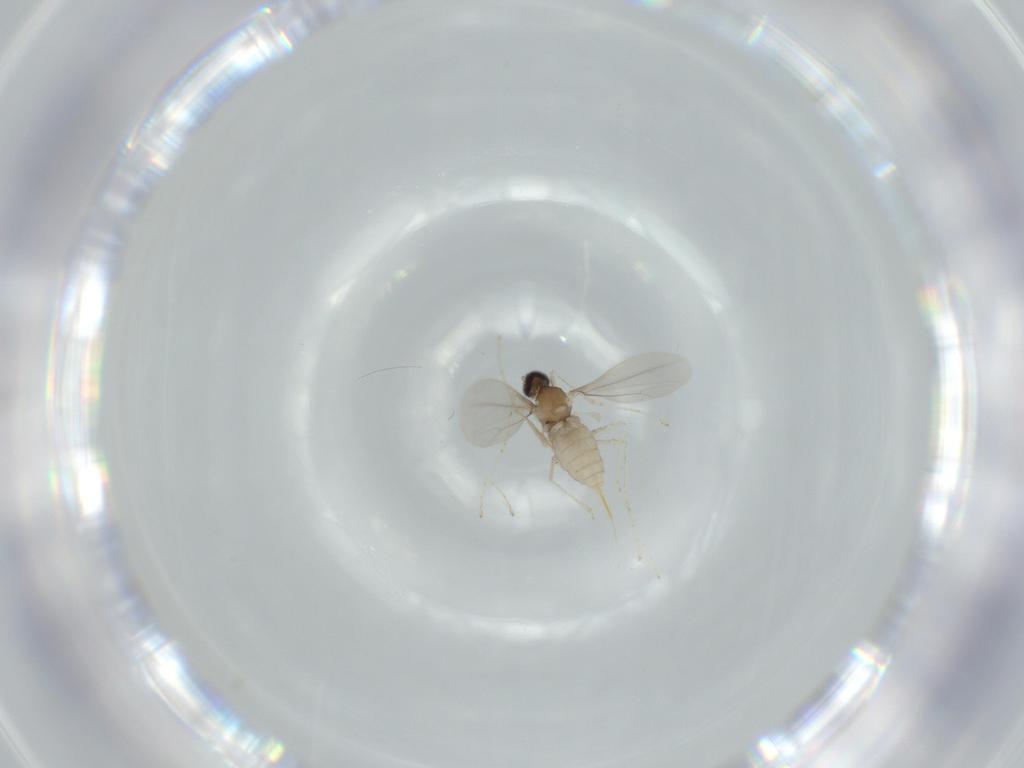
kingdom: Animalia
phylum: Arthropoda
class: Insecta
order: Diptera
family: Cecidomyiidae
